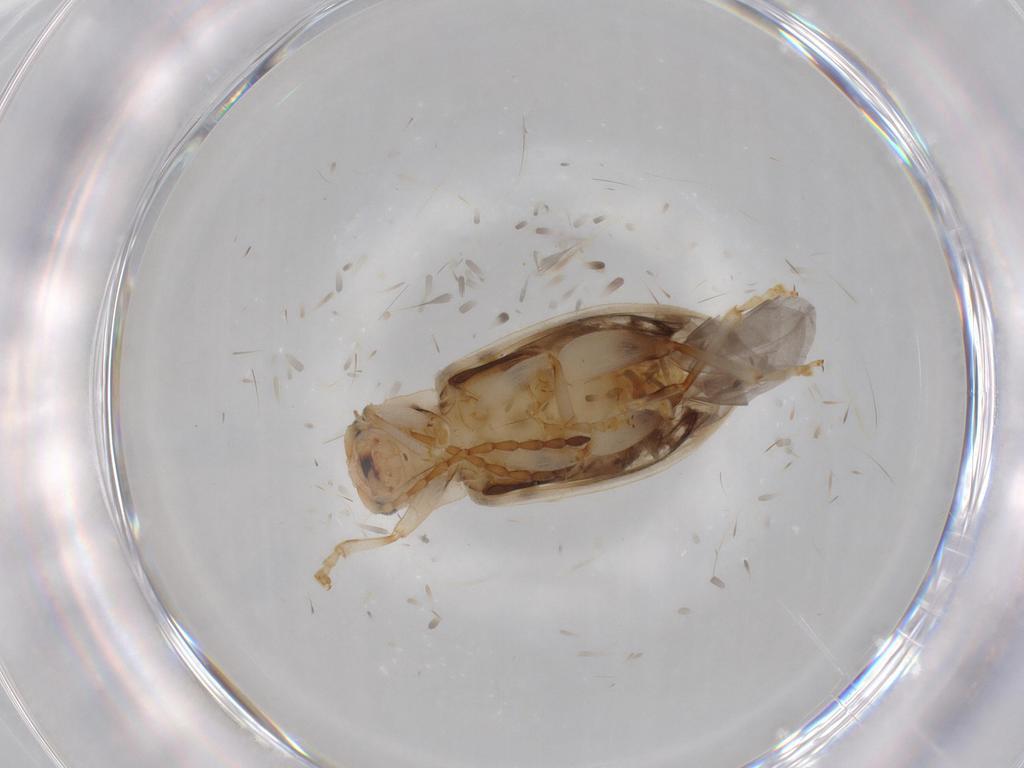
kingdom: Animalia
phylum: Arthropoda
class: Insecta
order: Coleoptera
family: Chrysomelidae
